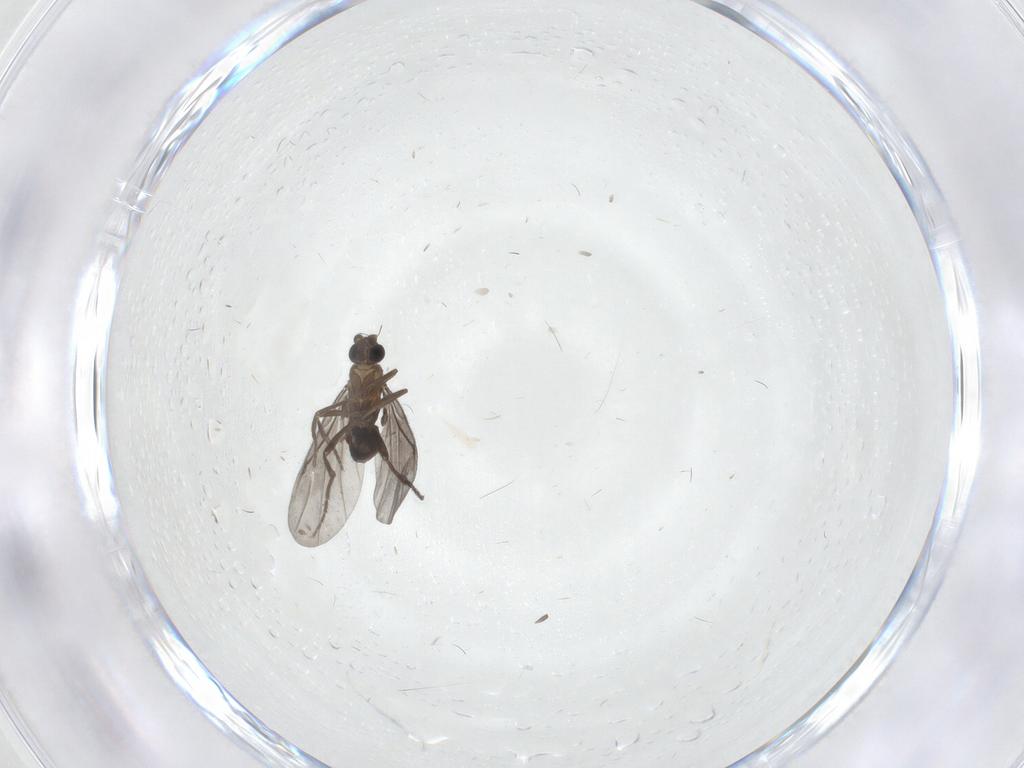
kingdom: Animalia
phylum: Arthropoda
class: Insecta
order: Diptera
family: Phoridae
